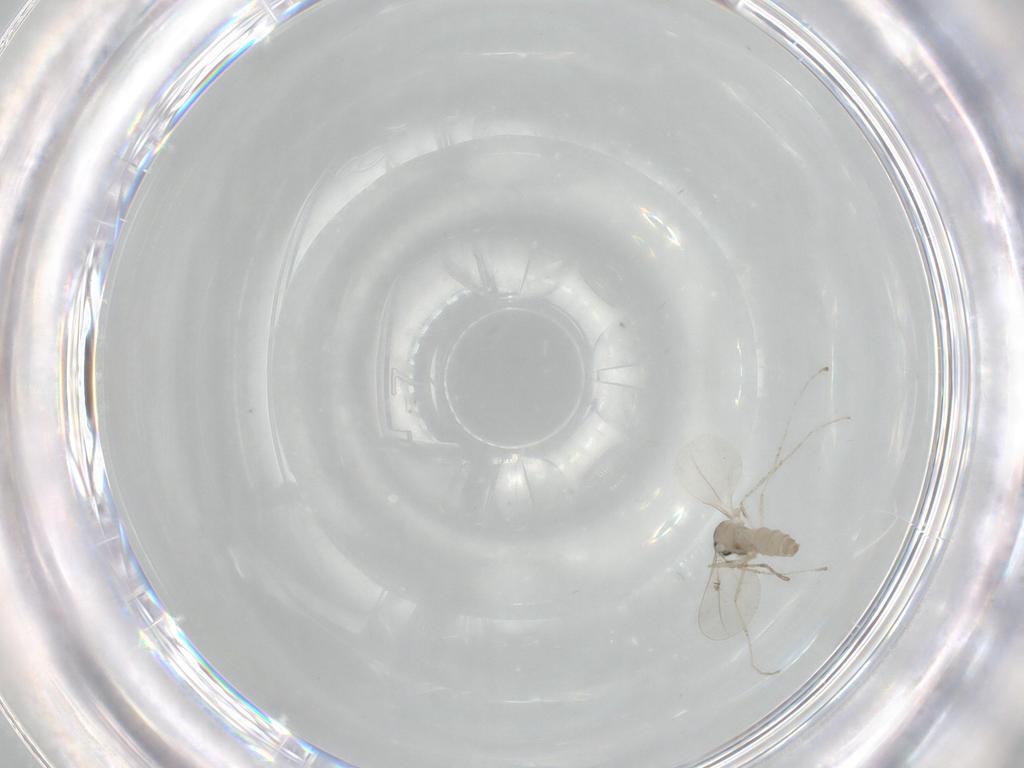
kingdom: Animalia
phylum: Arthropoda
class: Insecta
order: Diptera
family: Cecidomyiidae
